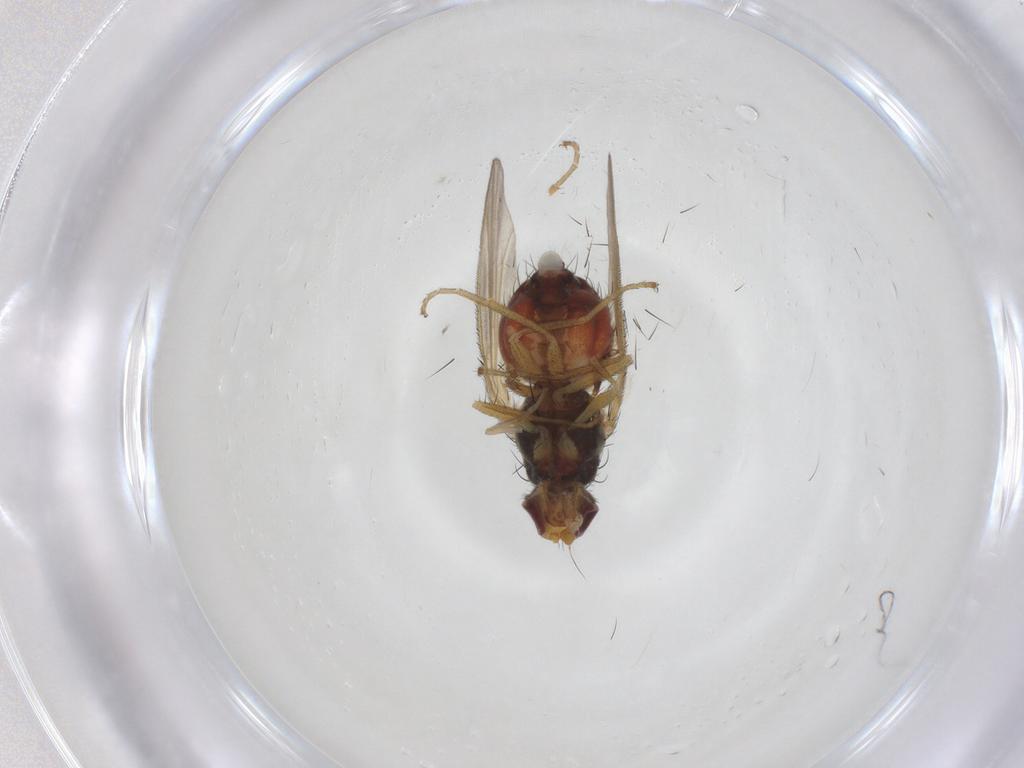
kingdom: Animalia
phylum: Arthropoda
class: Insecta
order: Diptera
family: Heleomyzidae
